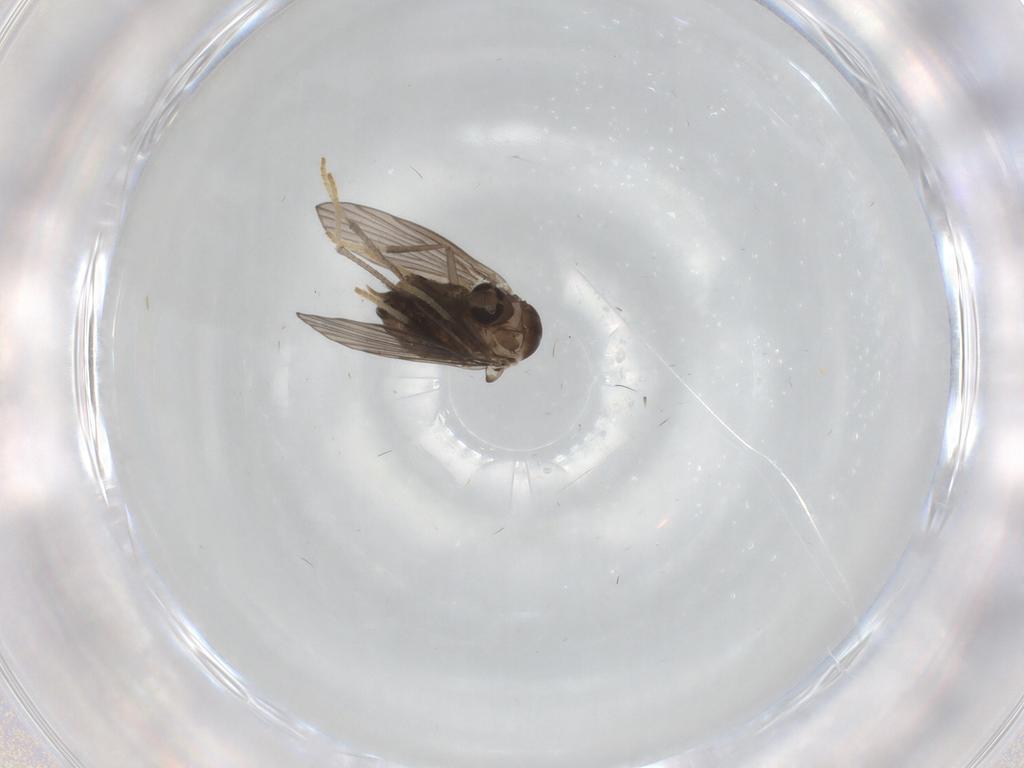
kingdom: Animalia
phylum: Arthropoda
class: Insecta
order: Diptera
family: Cecidomyiidae
